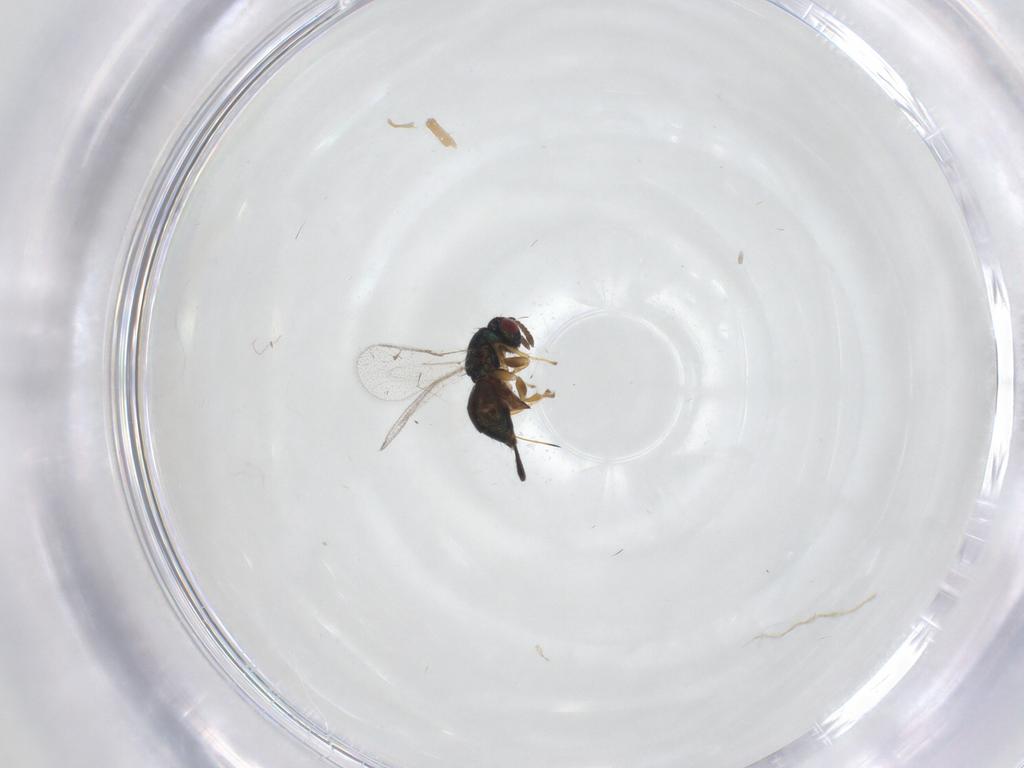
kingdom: Animalia
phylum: Arthropoda
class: Insecta
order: Hymenoptera
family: Torymidae
